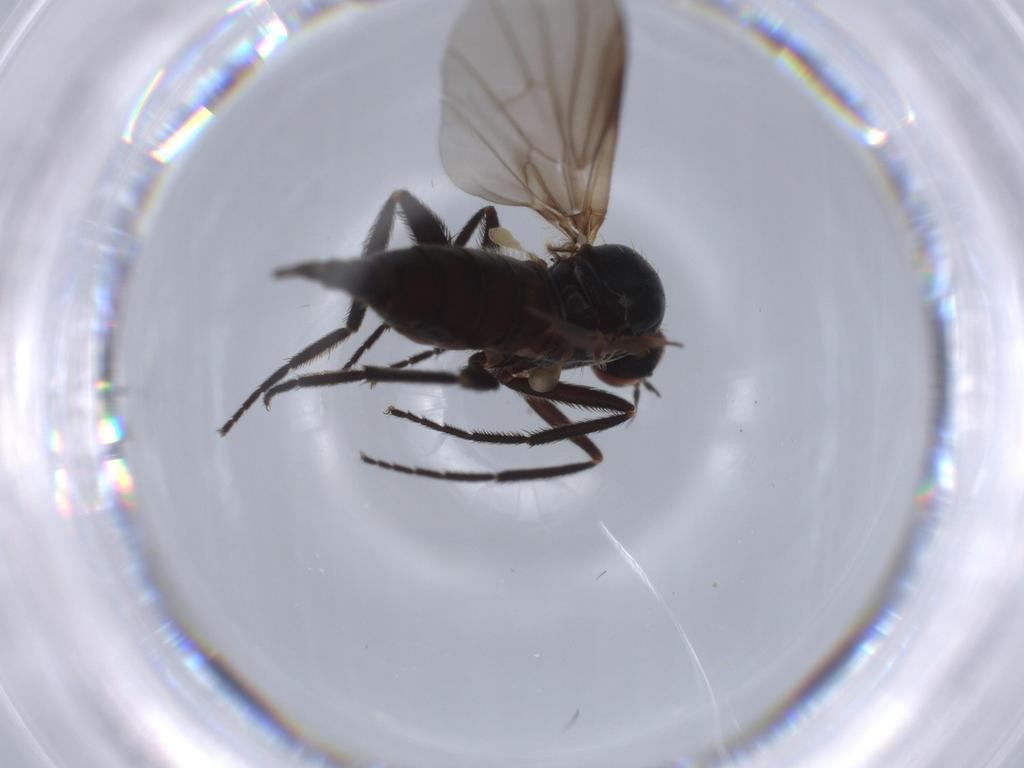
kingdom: Animalia
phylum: Arthropoda
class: Insecta
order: Diptera
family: Empididae
